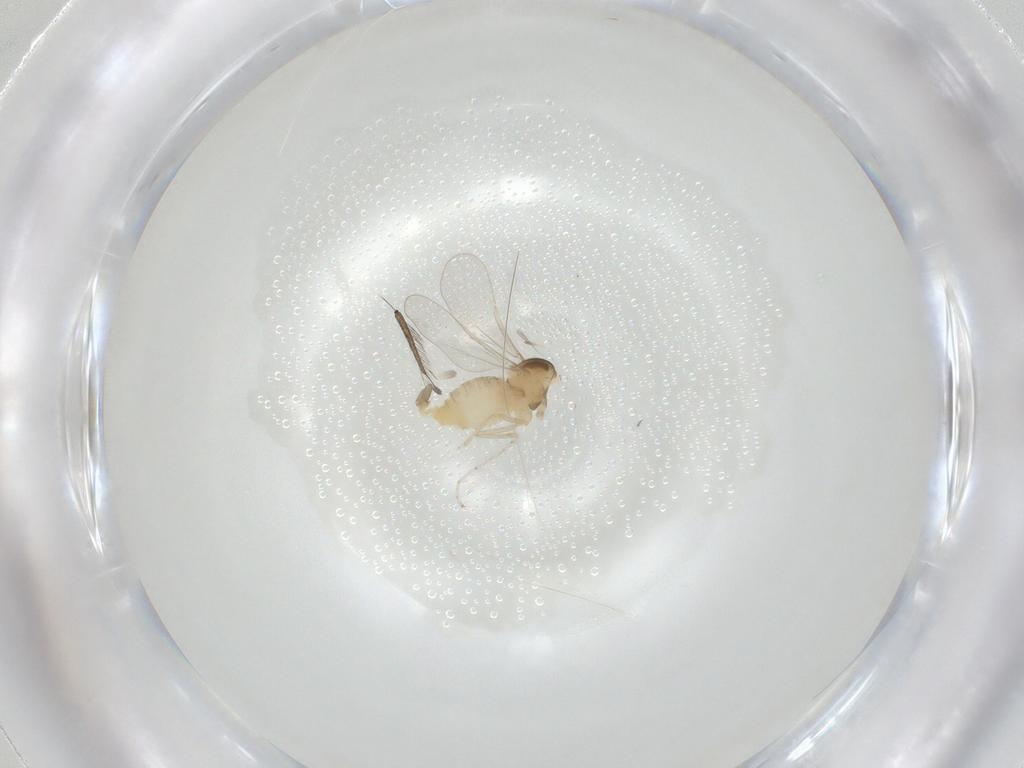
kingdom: Animalia
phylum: Arthropoda
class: Insecta
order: Diptera
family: Cecidomyiidae
